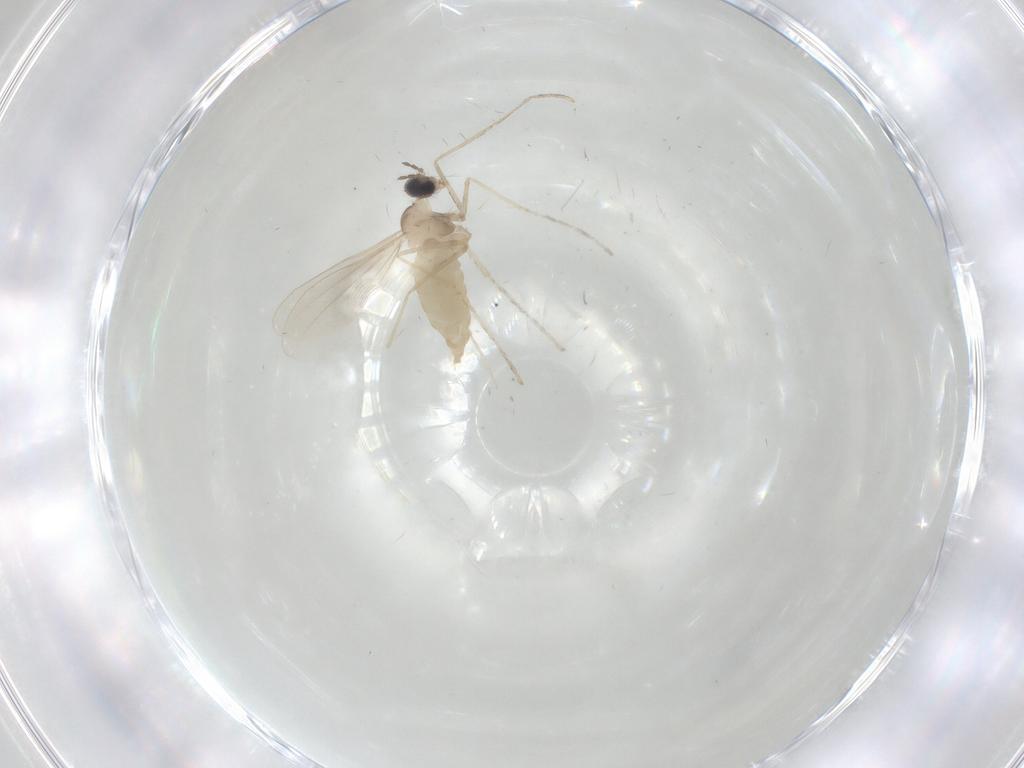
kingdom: Animalia
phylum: Arthropoda
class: Insecta
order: Diptera
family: Cecidomyiidae
